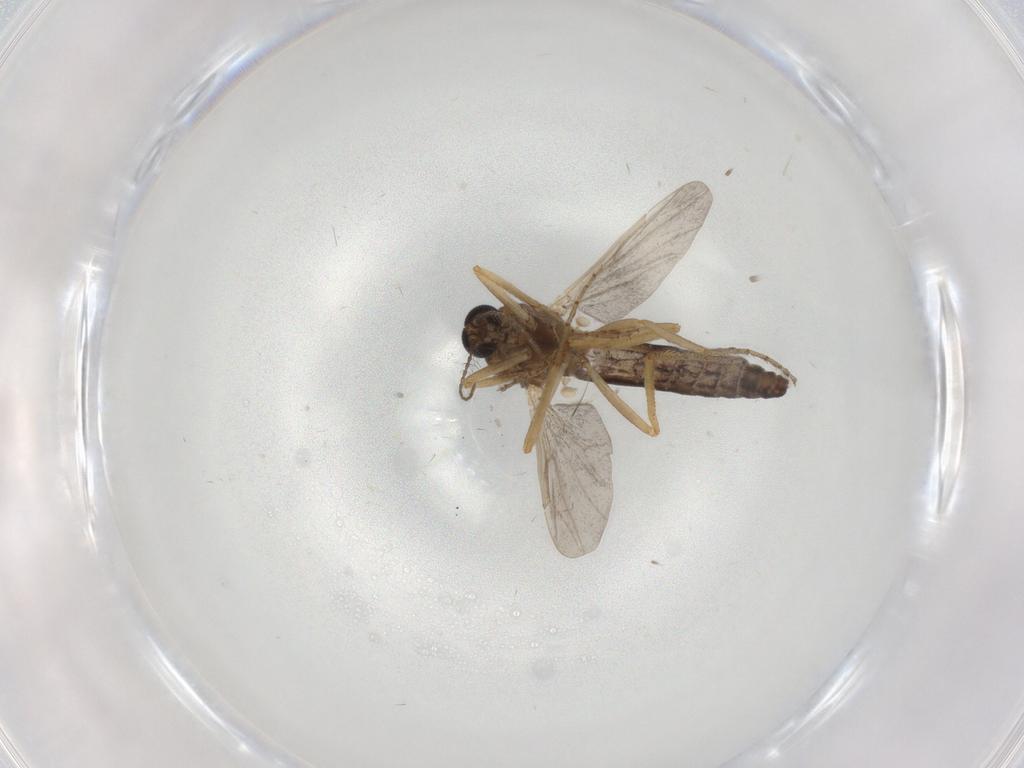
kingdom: Animalia
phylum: Arthropoda
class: Insecta
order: Diptera
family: Ceratopogonidae
